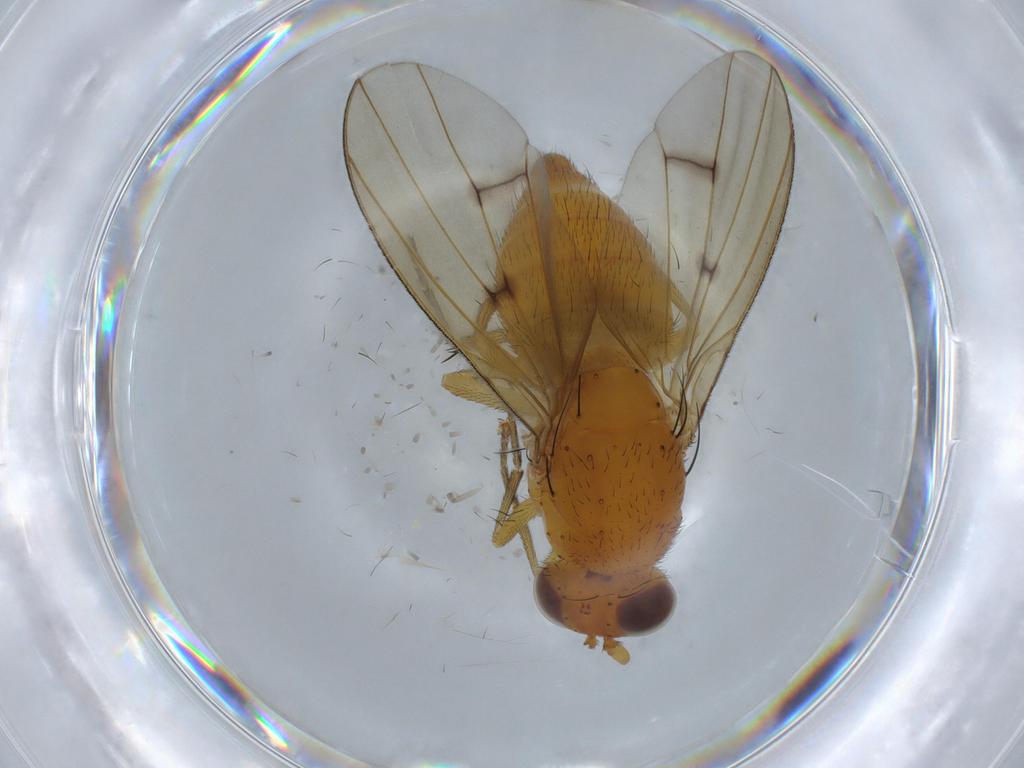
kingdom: Animalia
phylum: Arthropoda
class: Insecta
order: Diptera
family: Lauxaniidae
